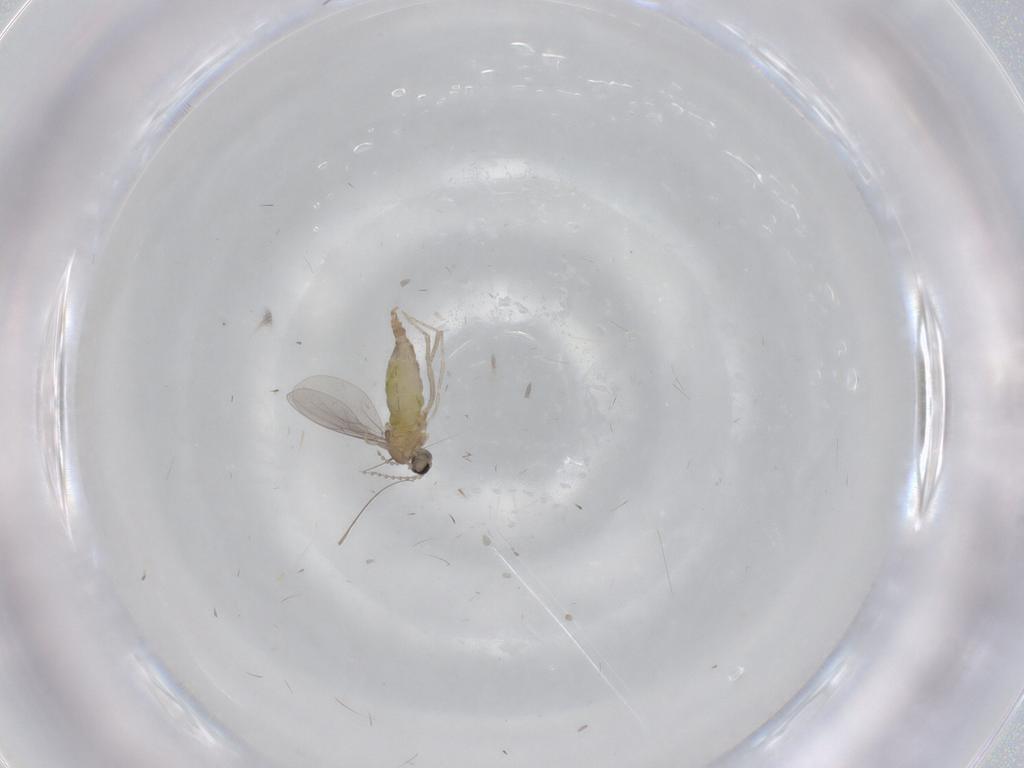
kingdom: Animalia
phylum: Arthropoda
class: Insecta
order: Diptera
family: Cecidomyiidae
